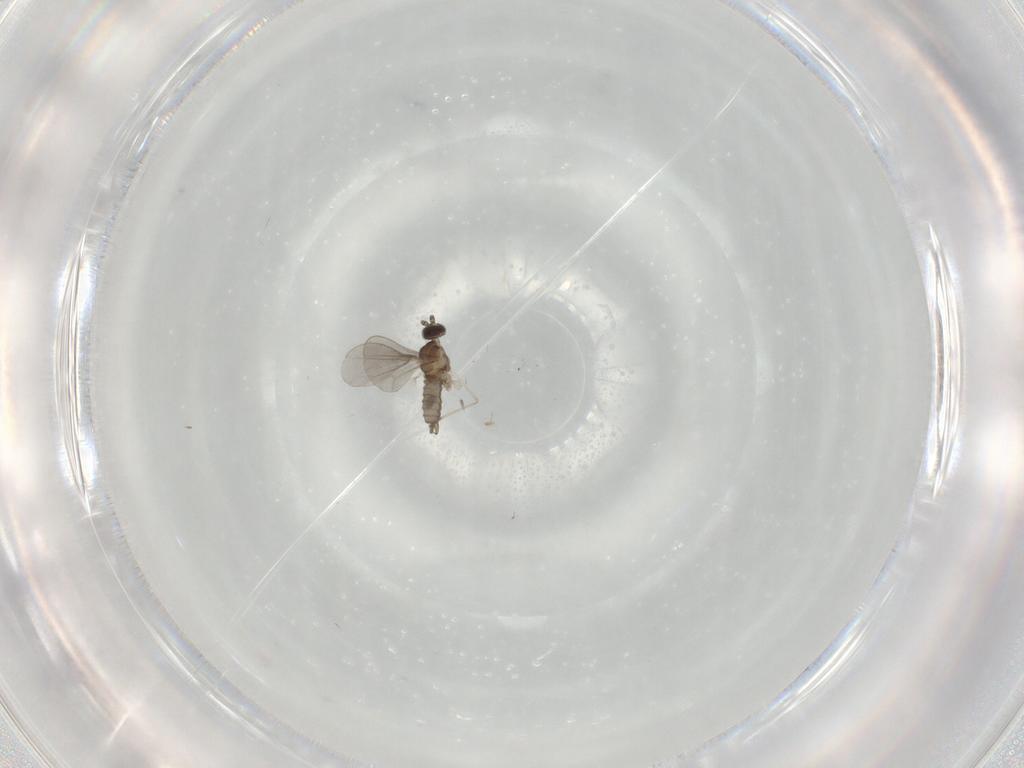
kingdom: Animalia
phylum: Arthropoda
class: Insecta
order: Diptera
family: Cecidomyiidae
